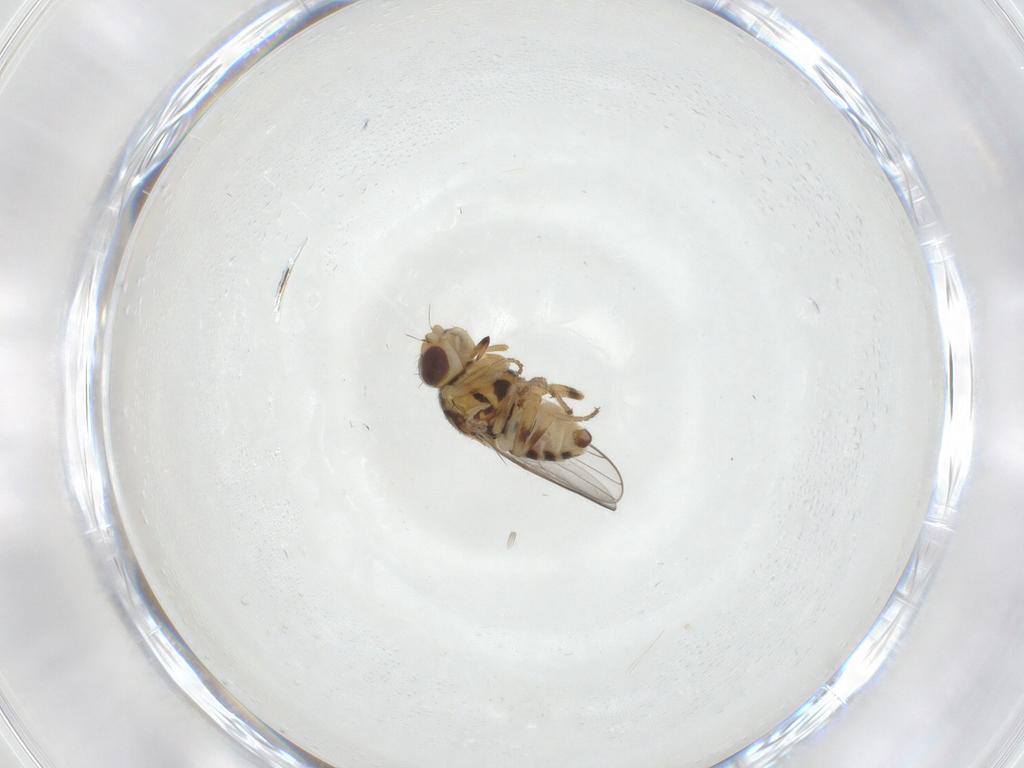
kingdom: Animalia
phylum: Arthropoda
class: Insecta
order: Diptera
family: Chloropidae
